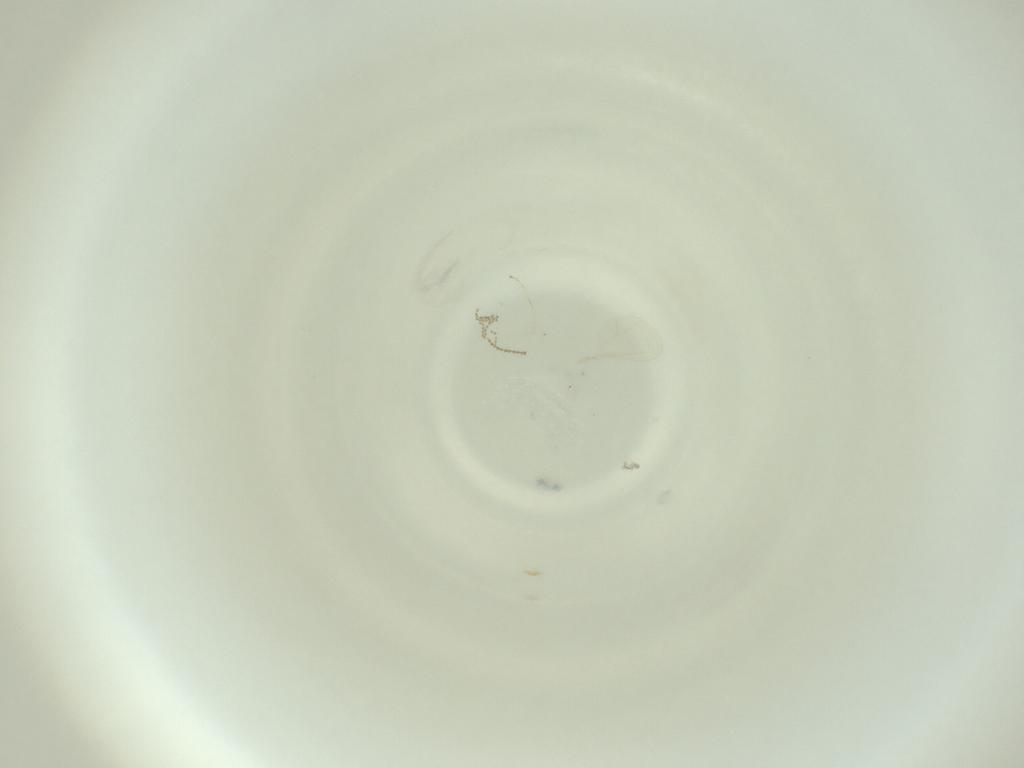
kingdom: Animalia
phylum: Arthropoda
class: Insecta
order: Diptera
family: Cecidomyiidae
